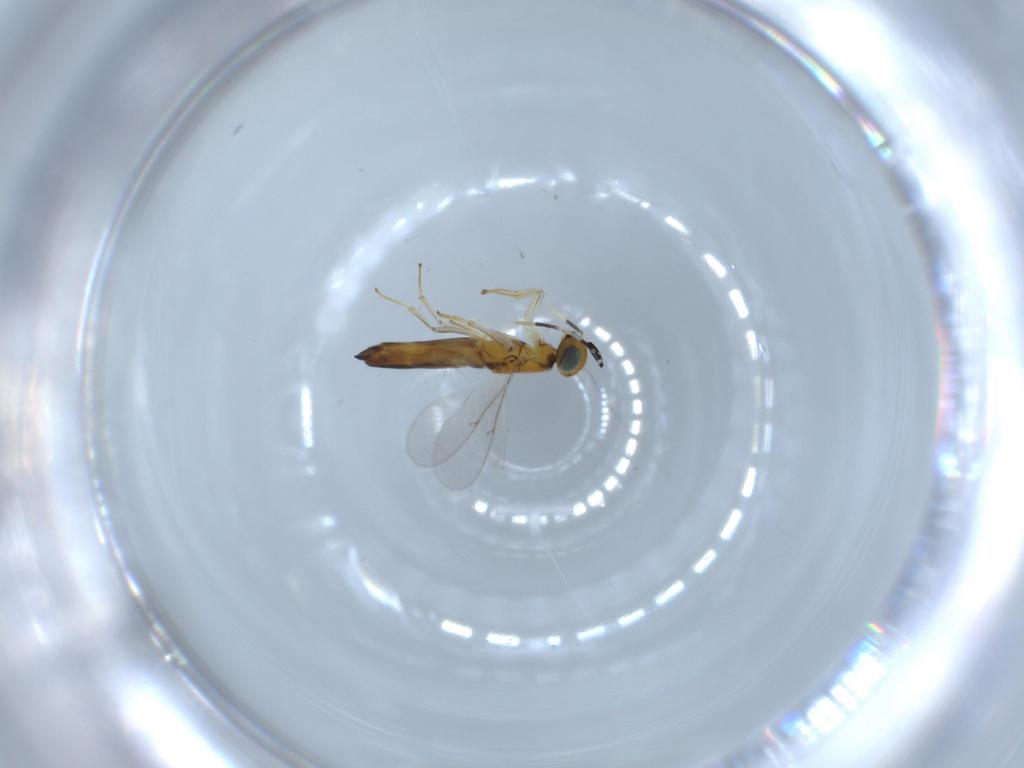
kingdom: Animalia
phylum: Arthropoda
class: Insecta
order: Hymenoptera
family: Encyrtidae
